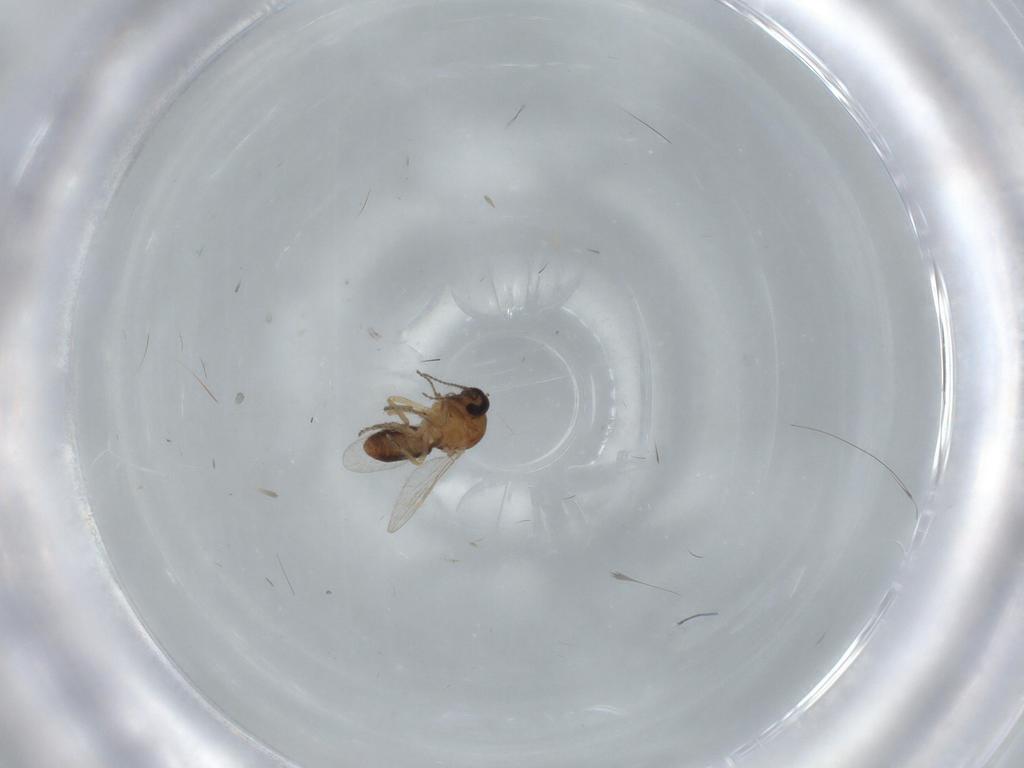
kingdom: Animalia
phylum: Arthropoda
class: Insecta
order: Diptera
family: Ceratopogonidae
